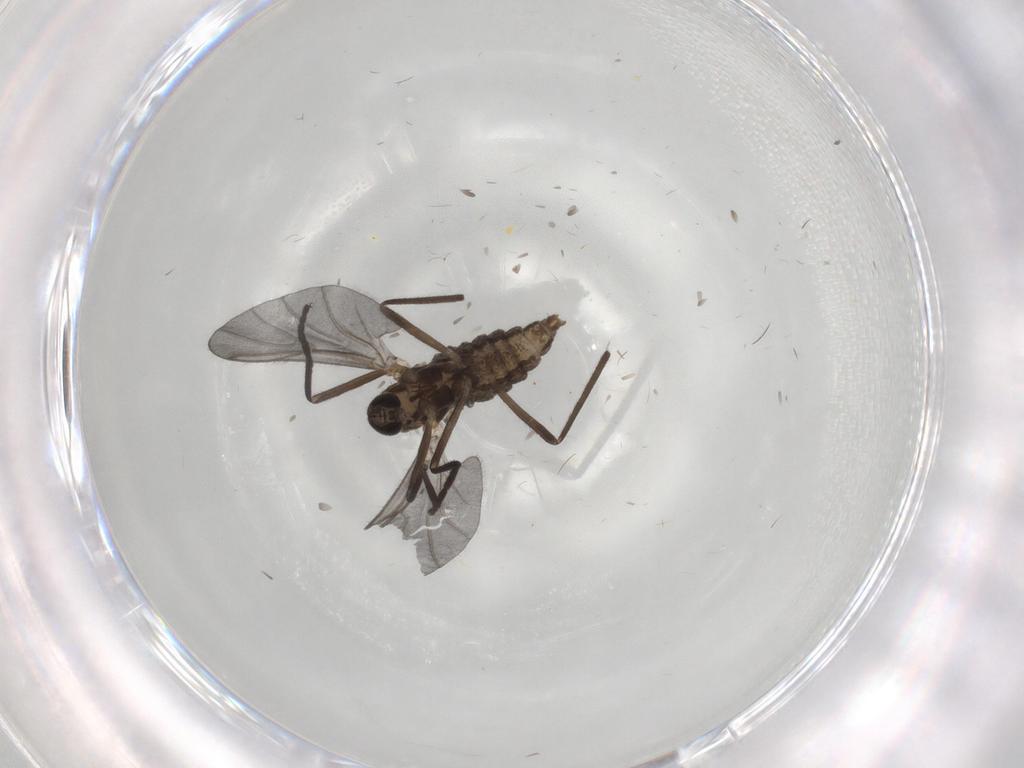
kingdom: Animalia
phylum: Arthropoda
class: Insecta
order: Diptera
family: Cecidomyiidae
